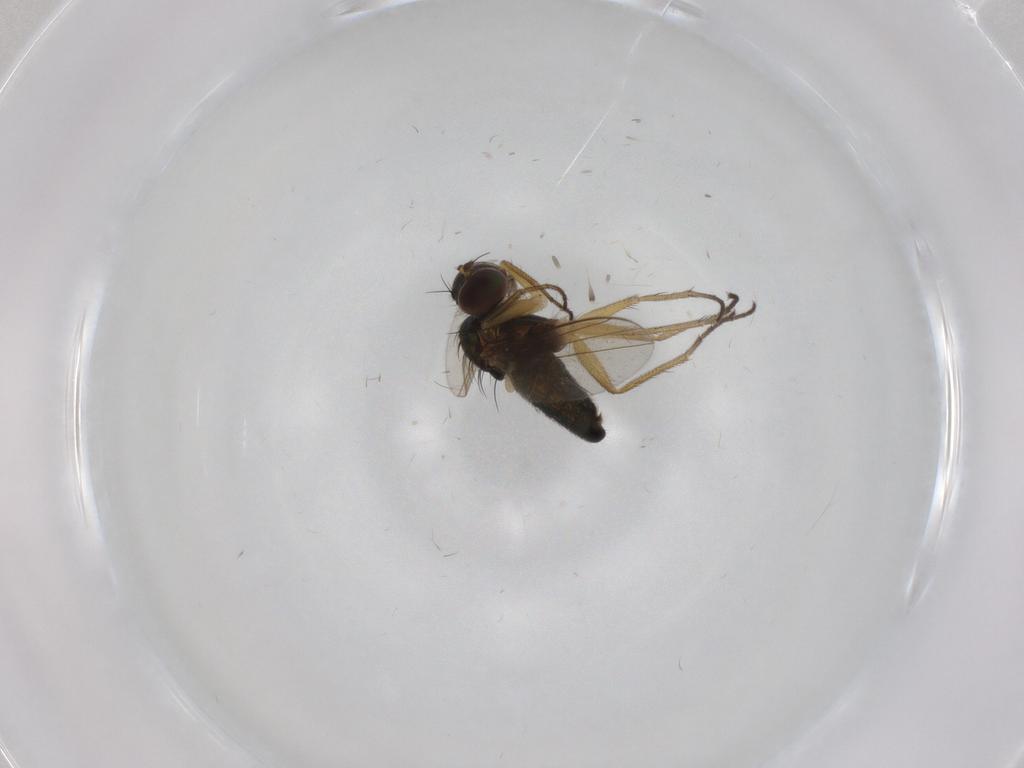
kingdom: Animalia
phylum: Arthropoda
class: Insecta
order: Diptera
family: Dolichopodidae
